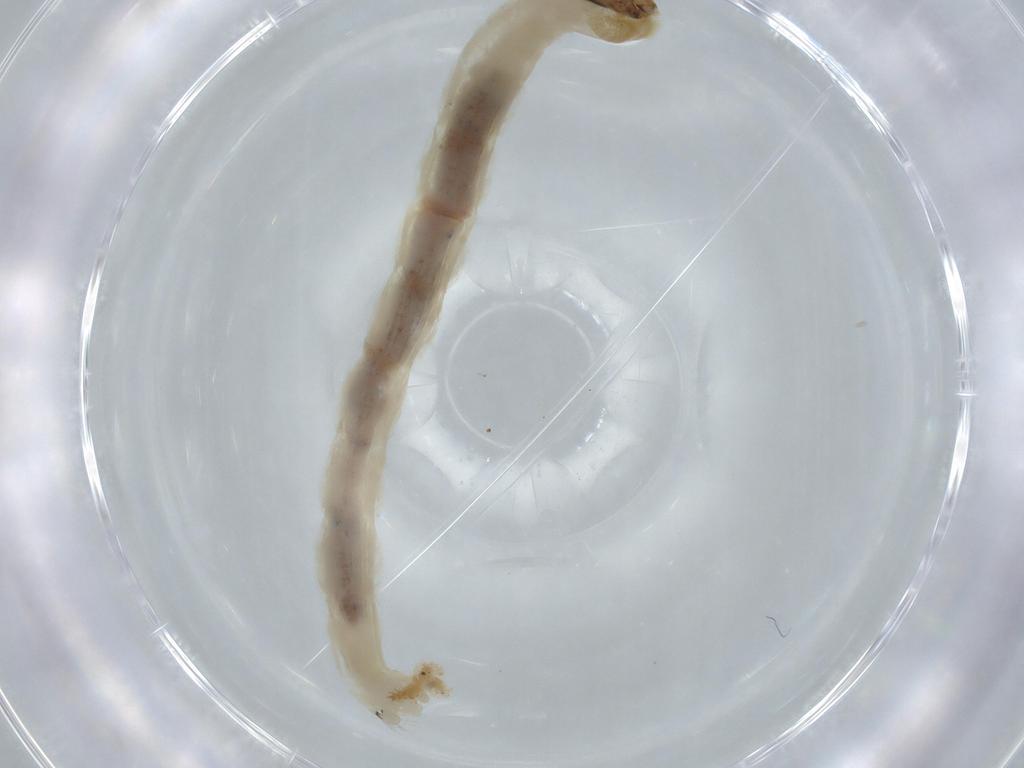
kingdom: Animalia
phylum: Arthropoda
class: Insecta
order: Diptera
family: Chironomidae
